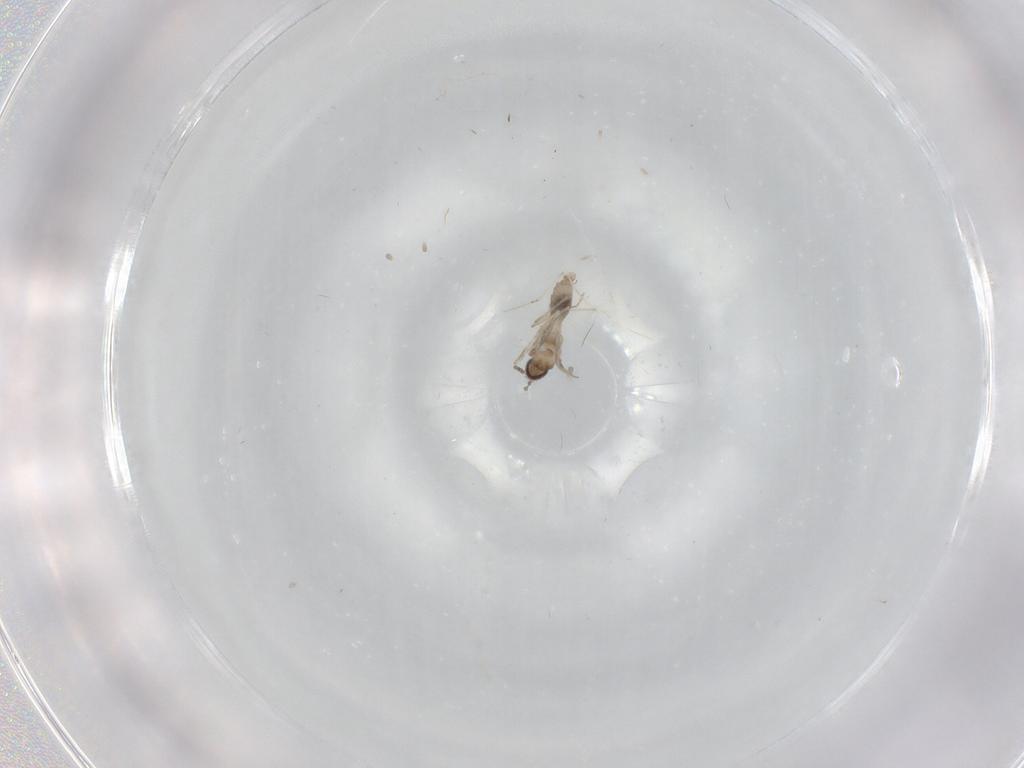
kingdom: Animalia
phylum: Arthropoda
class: Insecta
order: Diptera
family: Cecidomyiidae
